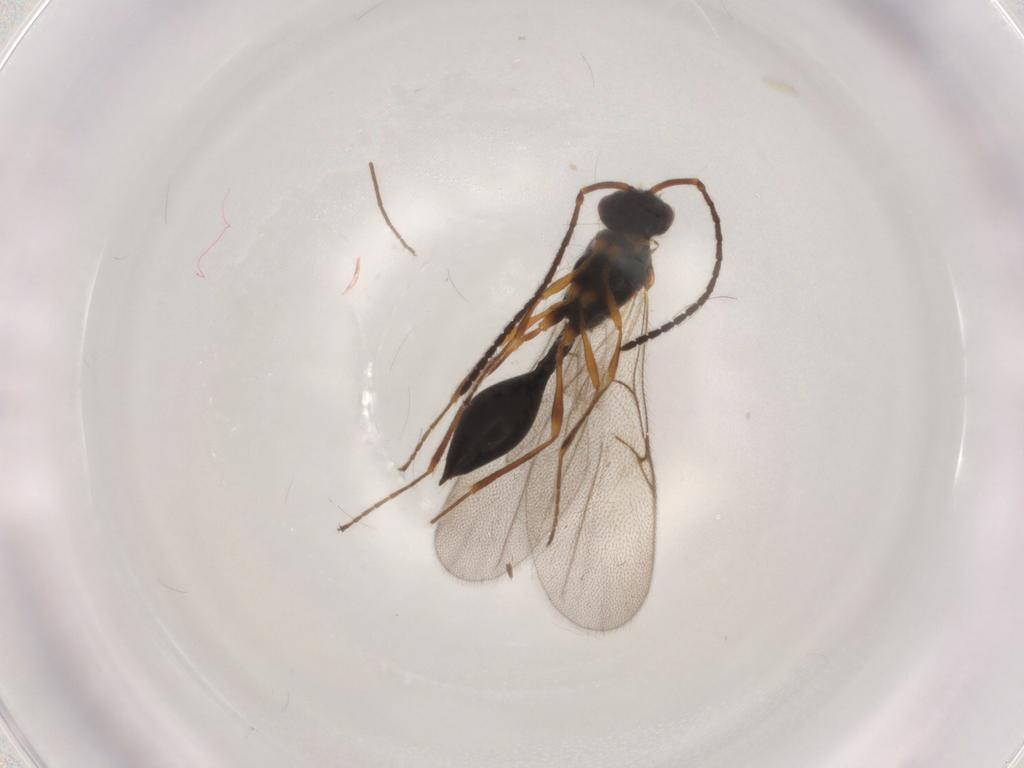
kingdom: Animalia
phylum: Arthropoda
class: Insecta
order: Hymenoptera
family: Diapriidae
